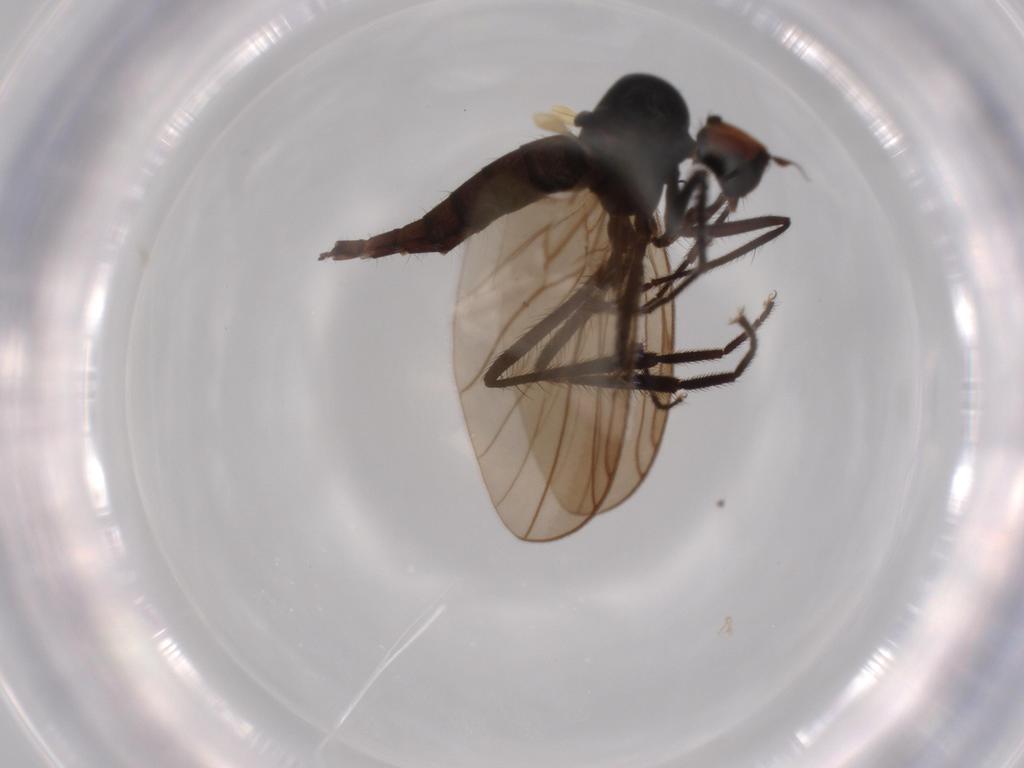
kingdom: Animalia
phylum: Arthropoda
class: Insecta
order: Diptera
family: Hybotidae
